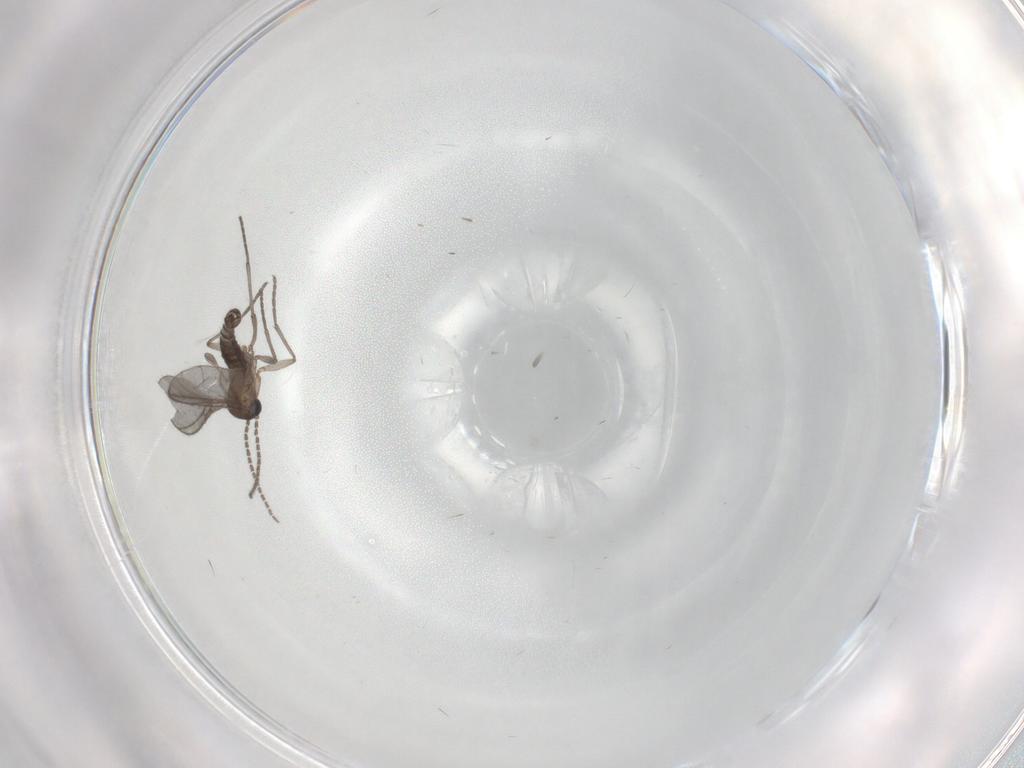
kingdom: Animalia
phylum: Arthropoda
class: Insecta
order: Diptera
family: Sciaridae
